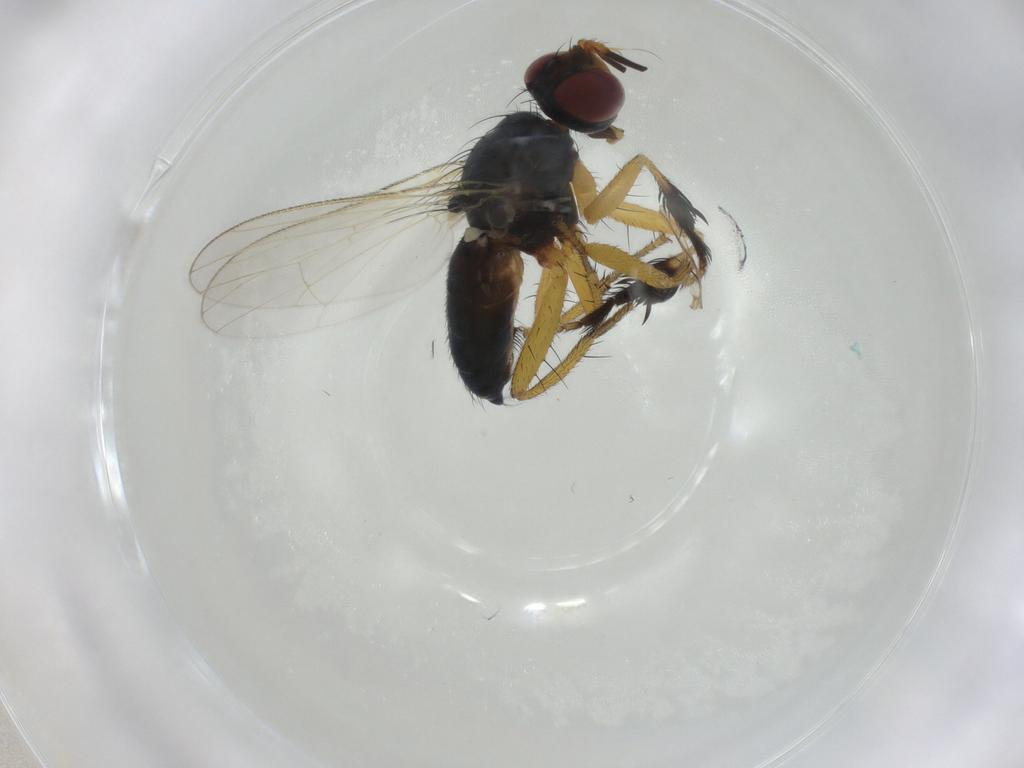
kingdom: Animalia
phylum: Arthropoda
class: Insecta
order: Diptera
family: Muscidae
